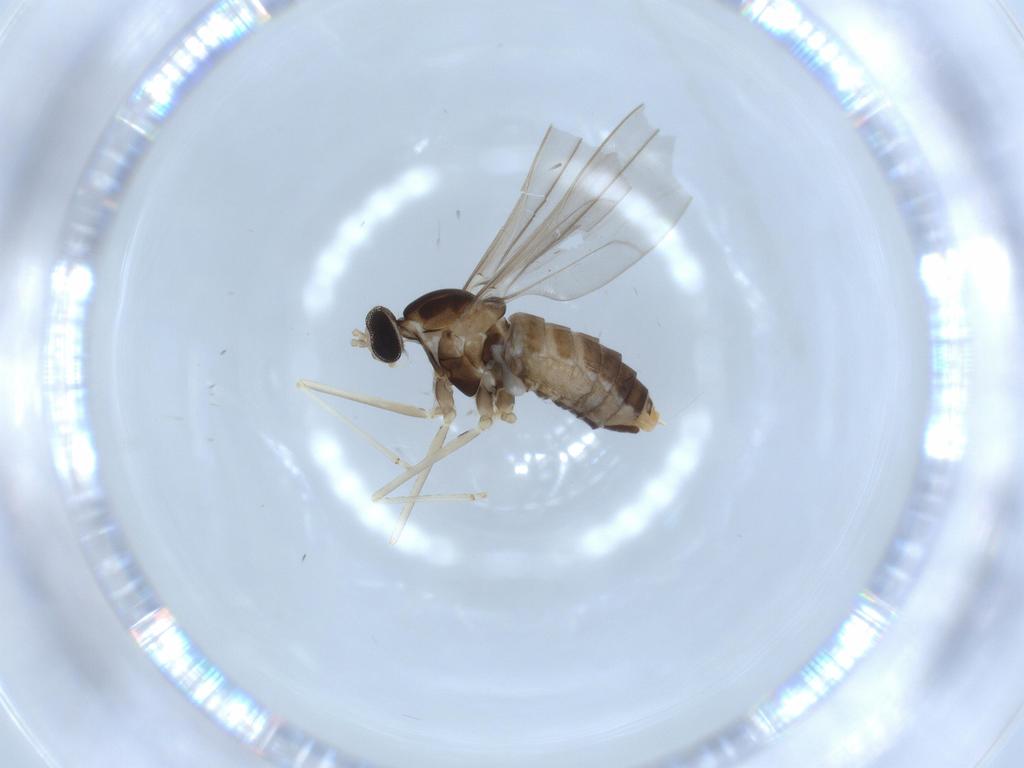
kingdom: Animalia
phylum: Arthropoda
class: Insecta
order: Diptera
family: Cecidomyiidae
